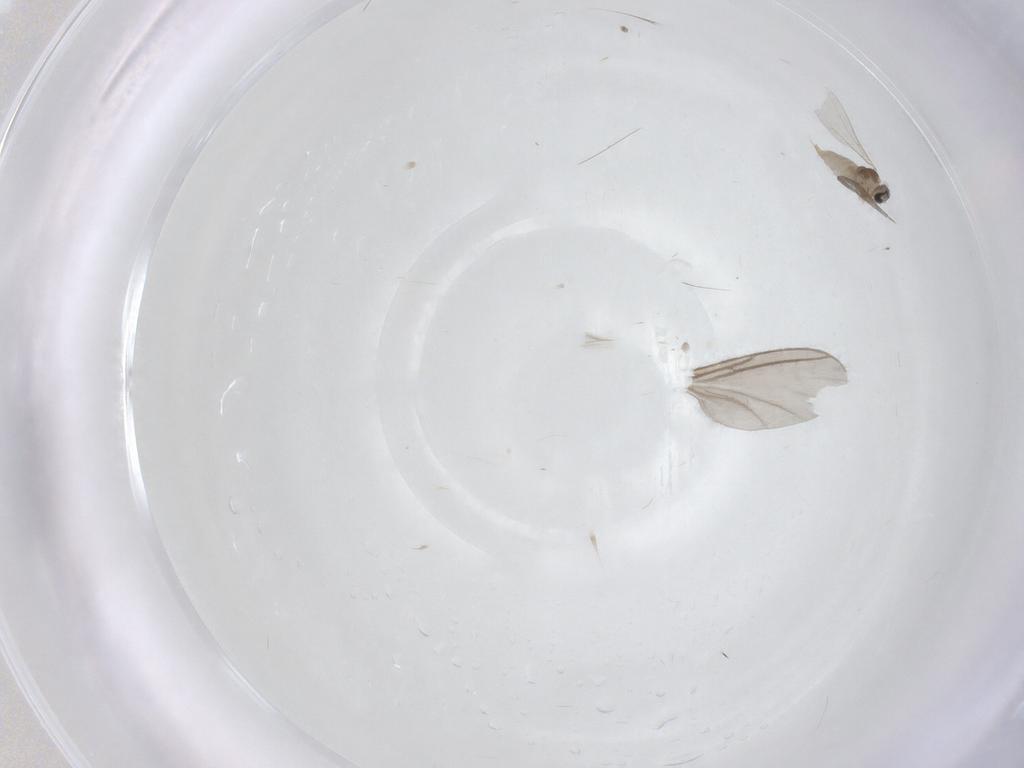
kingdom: Animalia
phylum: Arthropoda
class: Insecta
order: Diptera
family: Sciaridae
